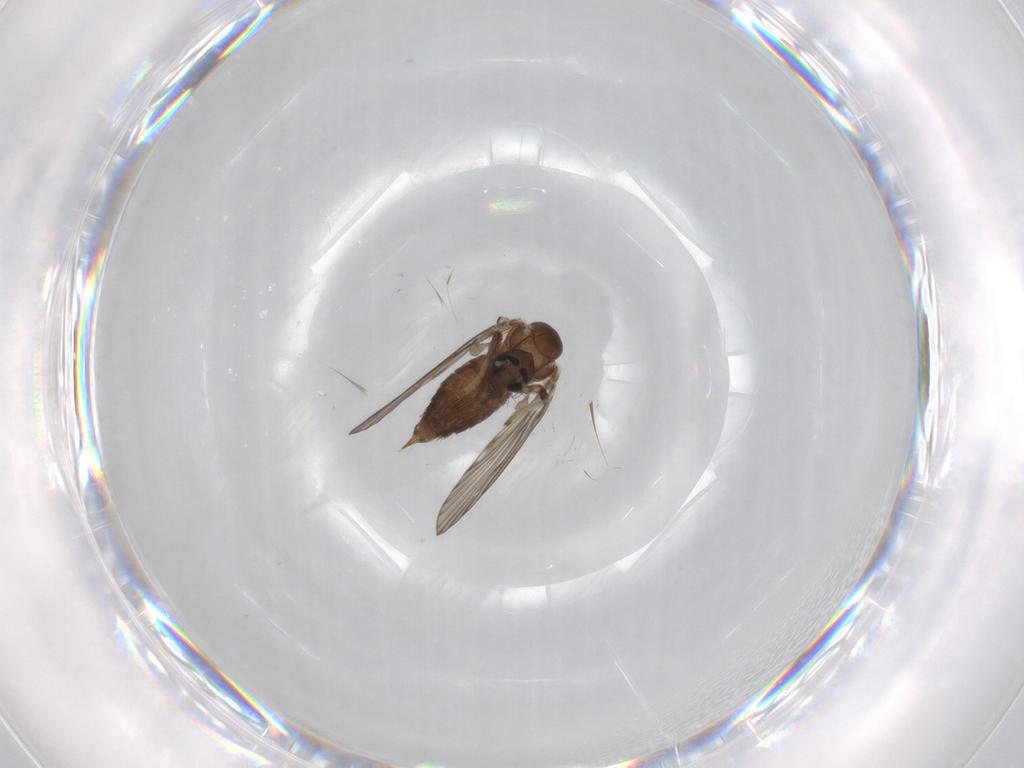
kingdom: Animalia
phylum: Arthropoda
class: Insecta
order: Diptera
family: Psychodidae
